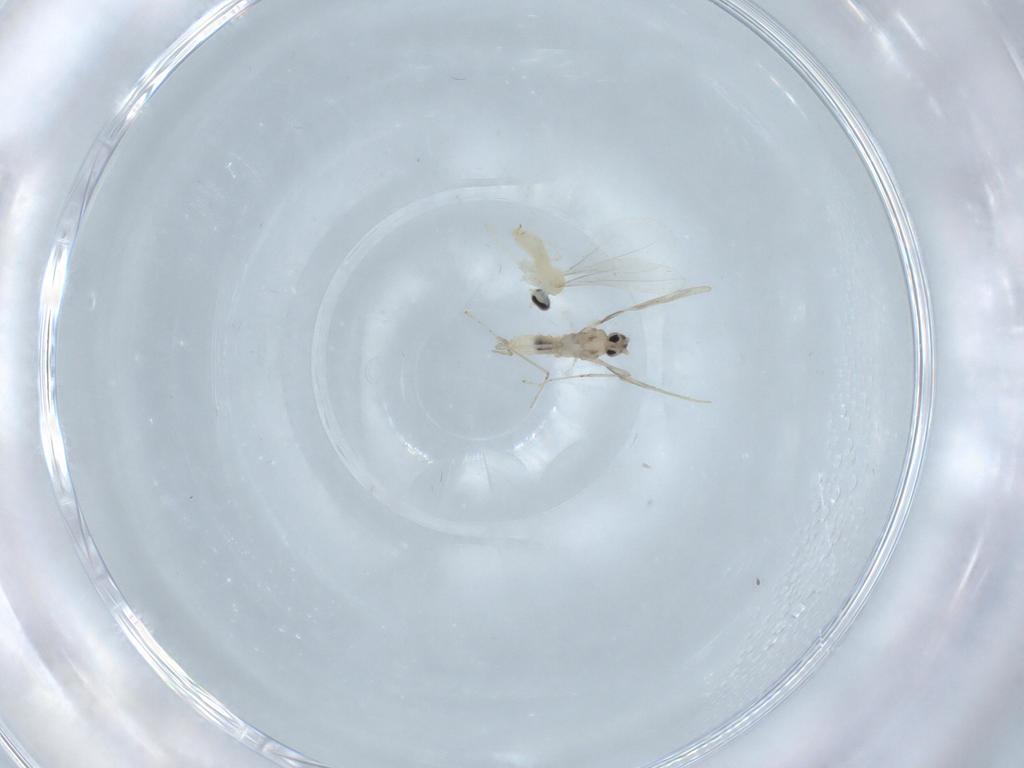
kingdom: Animalia
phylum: Arthropoda
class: Insecta
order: Diptera
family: Cecidomyiidae
